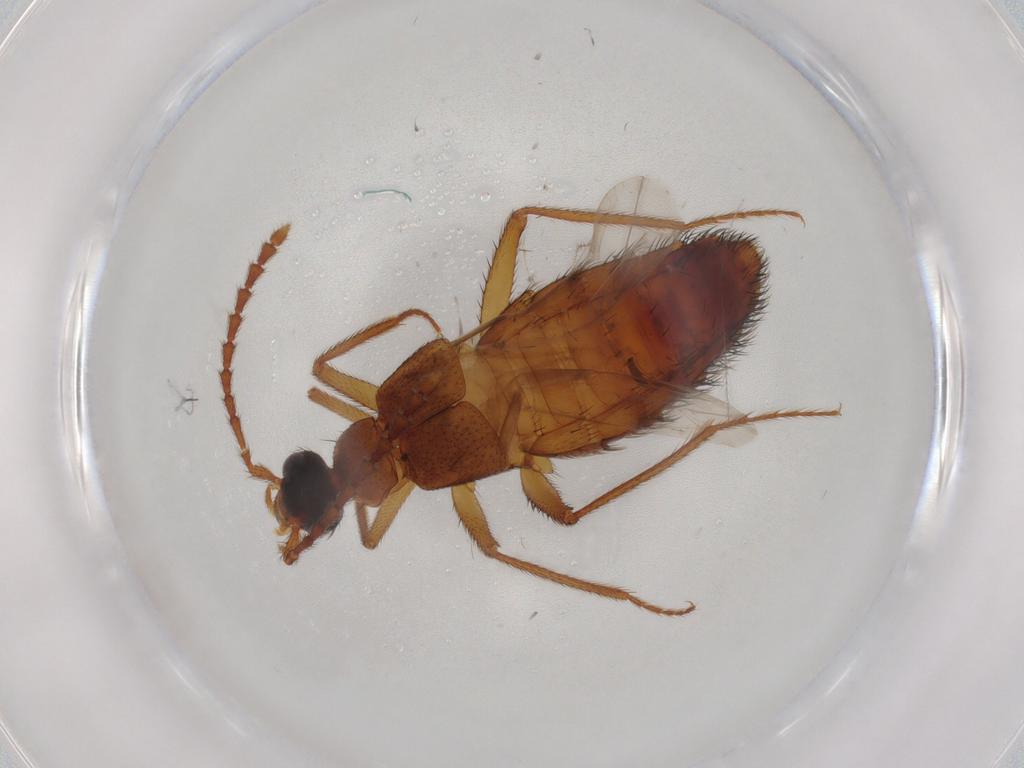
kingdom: Animalia
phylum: Arthropoda
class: Insecta
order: Coleoptera
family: Staphylinidae
